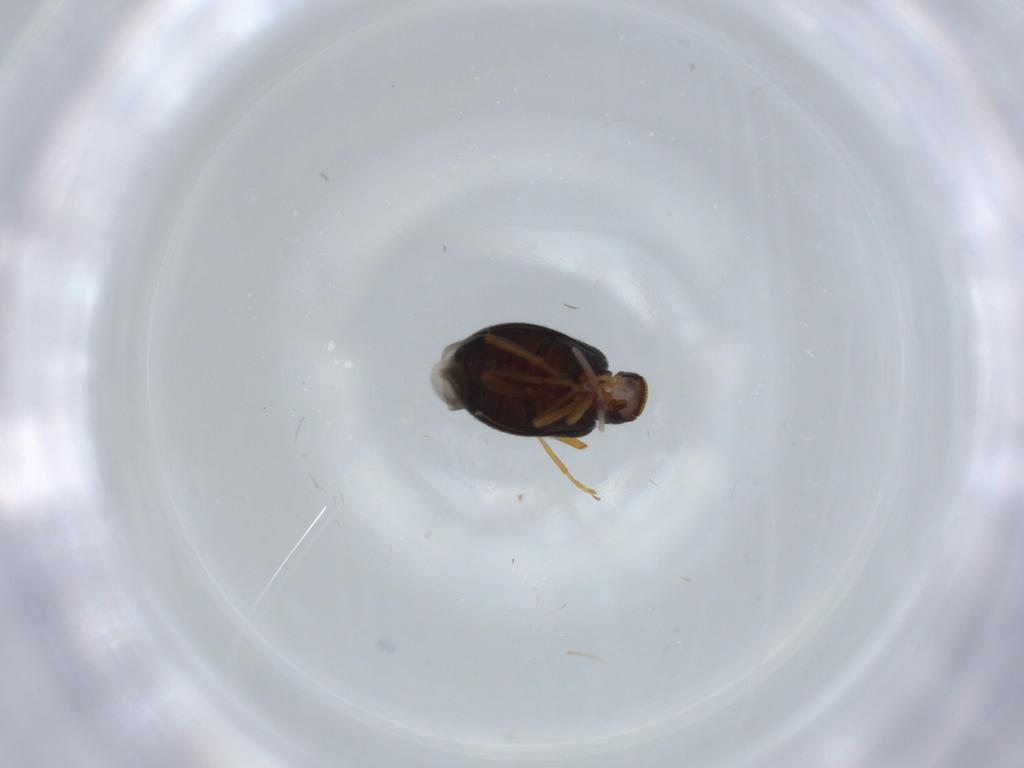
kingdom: Animalia
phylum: Arthropoda
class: Insecta
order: Coleoptera
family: Aderidae
